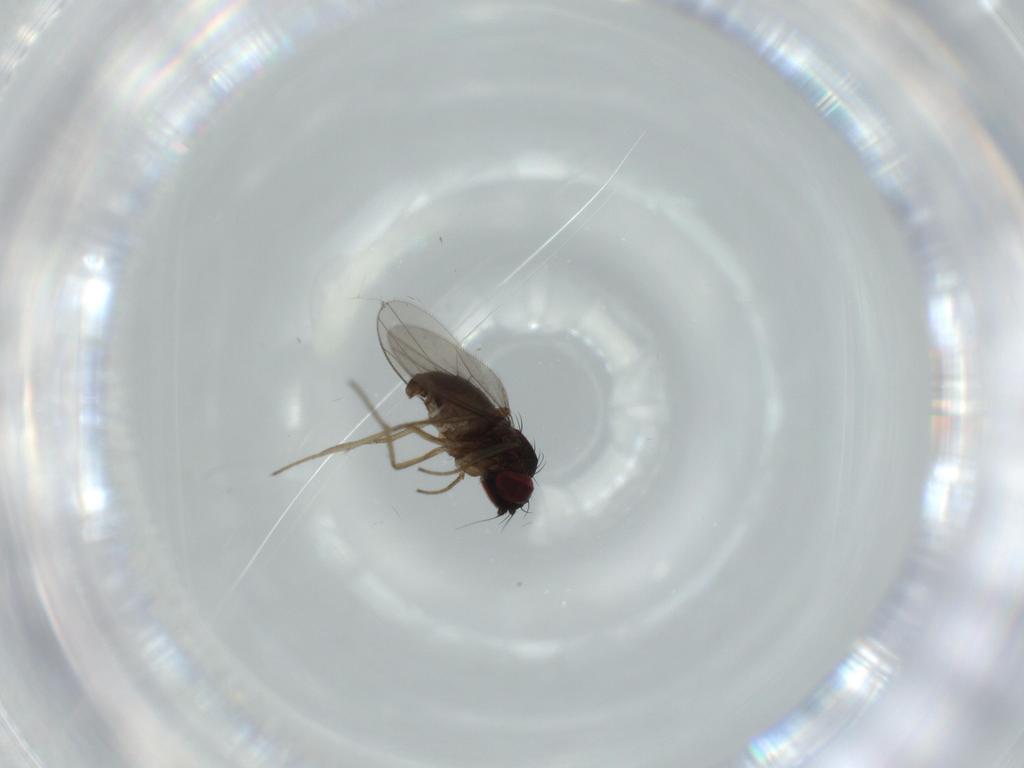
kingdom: Animalia
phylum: Arthropoda
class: Insecta
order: Diptera
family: Dolichopodidae
